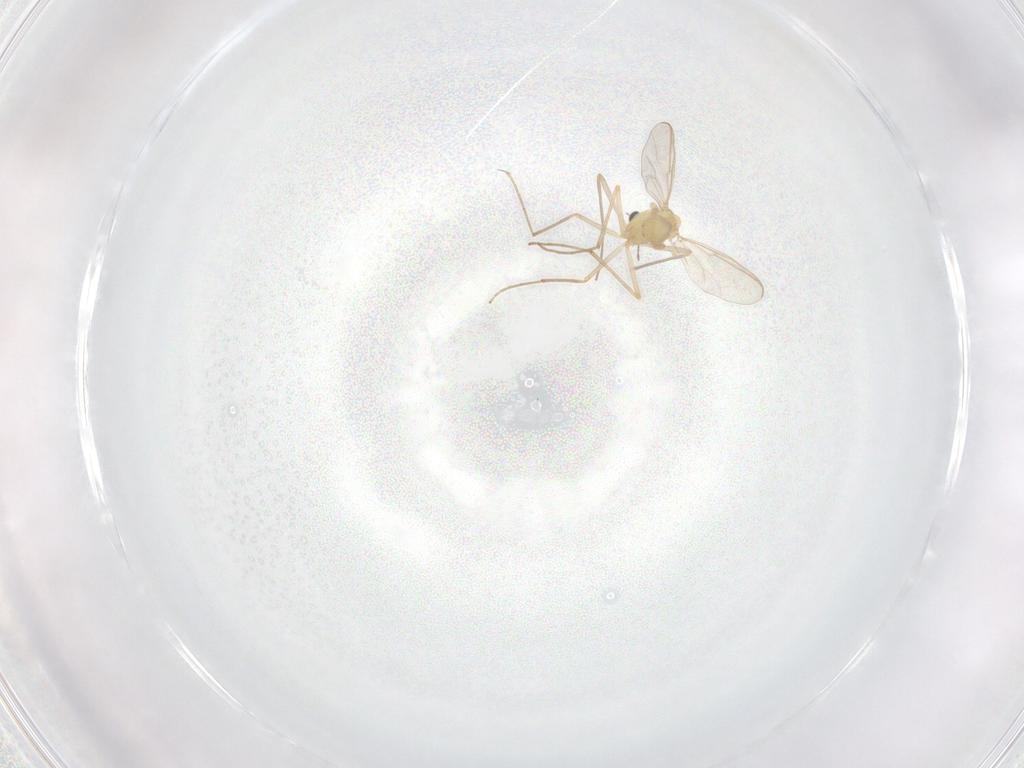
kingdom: Animalia
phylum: Arthropoda
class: Insecta
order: Diptera
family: Chironomidae
